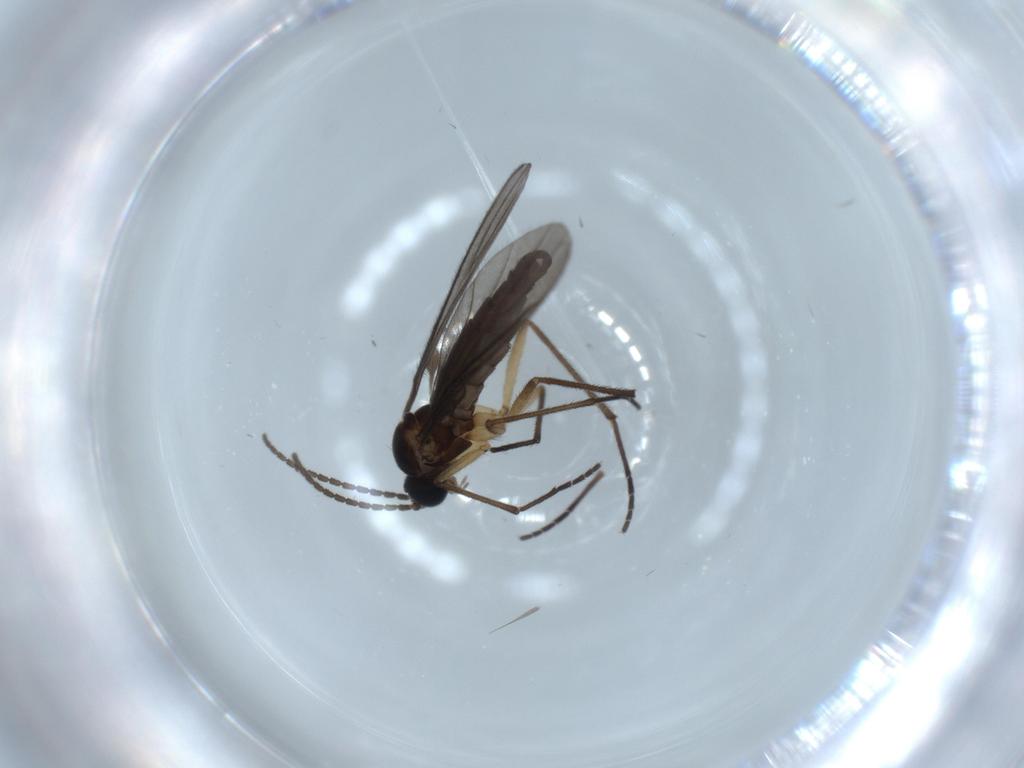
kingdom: Animalia
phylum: Arthropoda
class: Insecta
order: Diptera
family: Sciaridae
